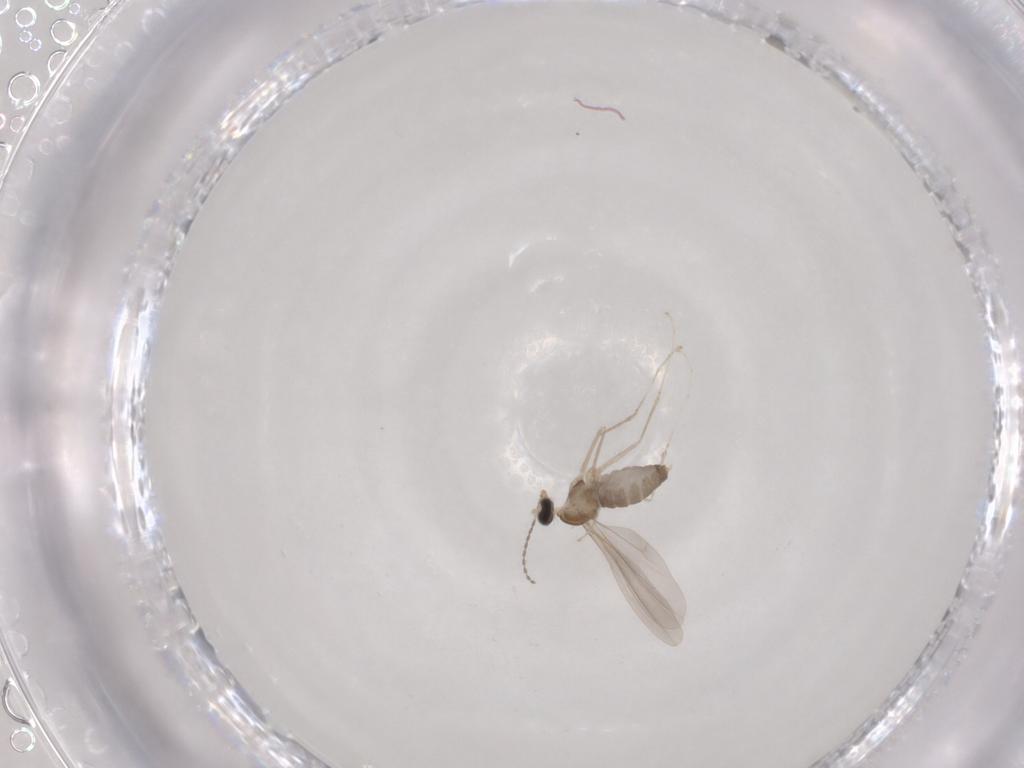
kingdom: Animalia
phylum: Arthropoda
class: Insecta
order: Diptera
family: Cecidomyiidae
